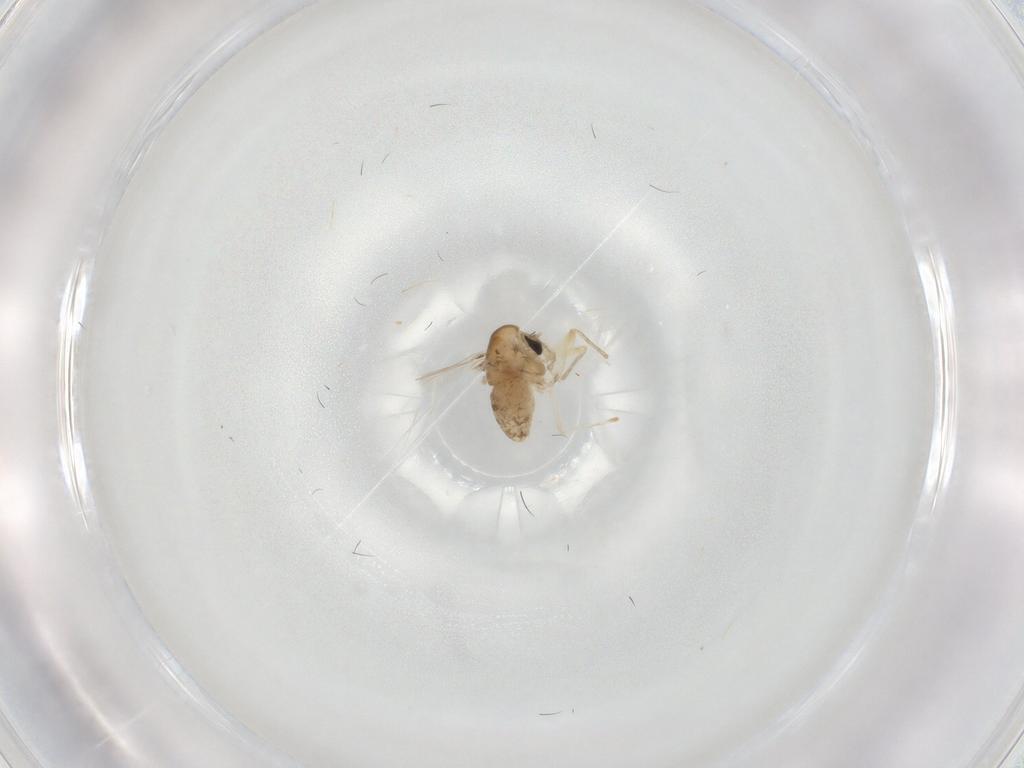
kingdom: Animalia
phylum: Arthropoda
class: Insecta
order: Diptera
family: Chironomidae
